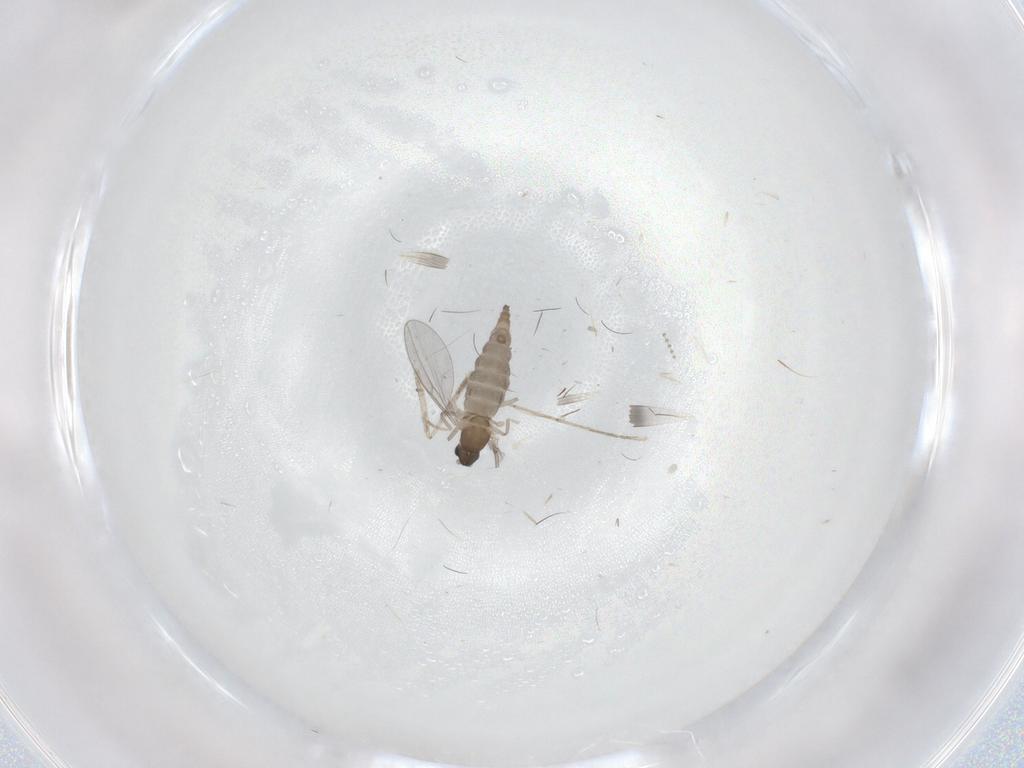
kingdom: Animalia
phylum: Arthropoda
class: Insecta
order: Diptera
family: Cecidomyiidae
